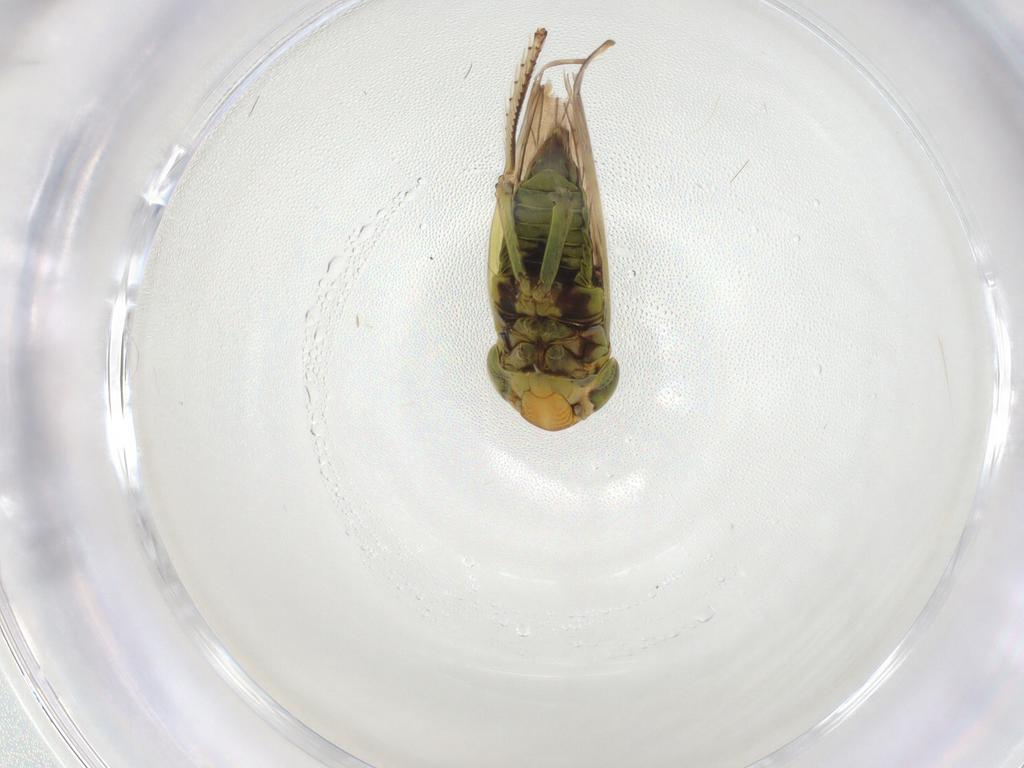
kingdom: Animalia
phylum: Arthropoda
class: Insecta
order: Hemiptera
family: Cicadellidae
